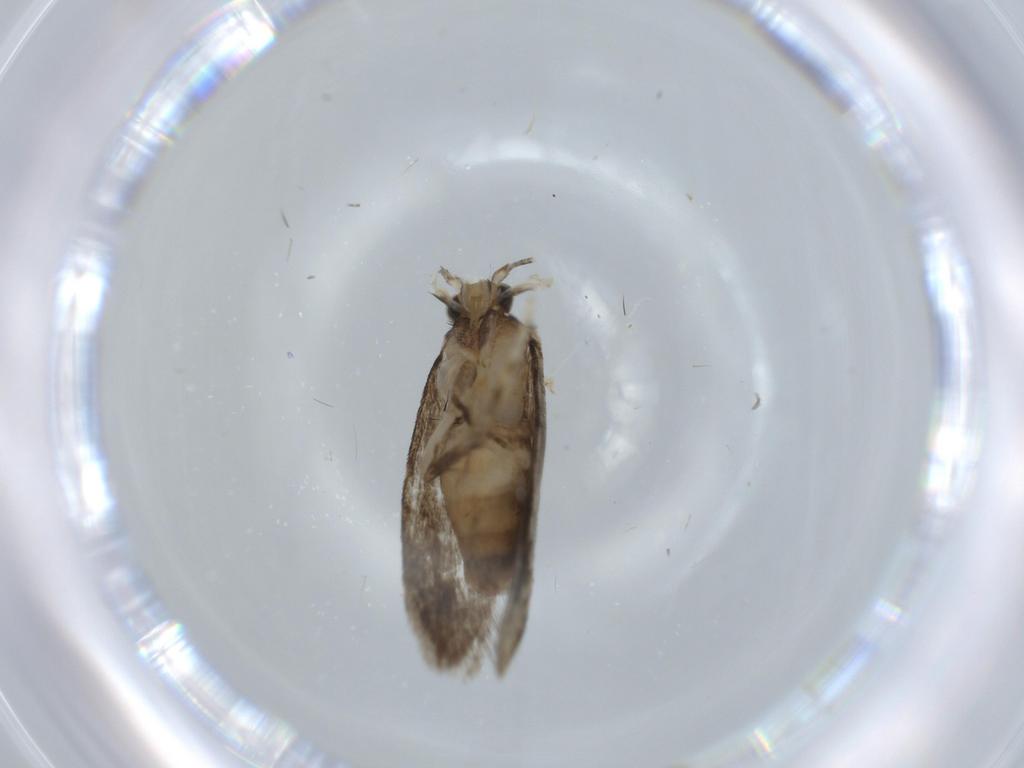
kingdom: Animalia
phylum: Arthropoda
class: Insecta
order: Lepidoptera
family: Tineidae
